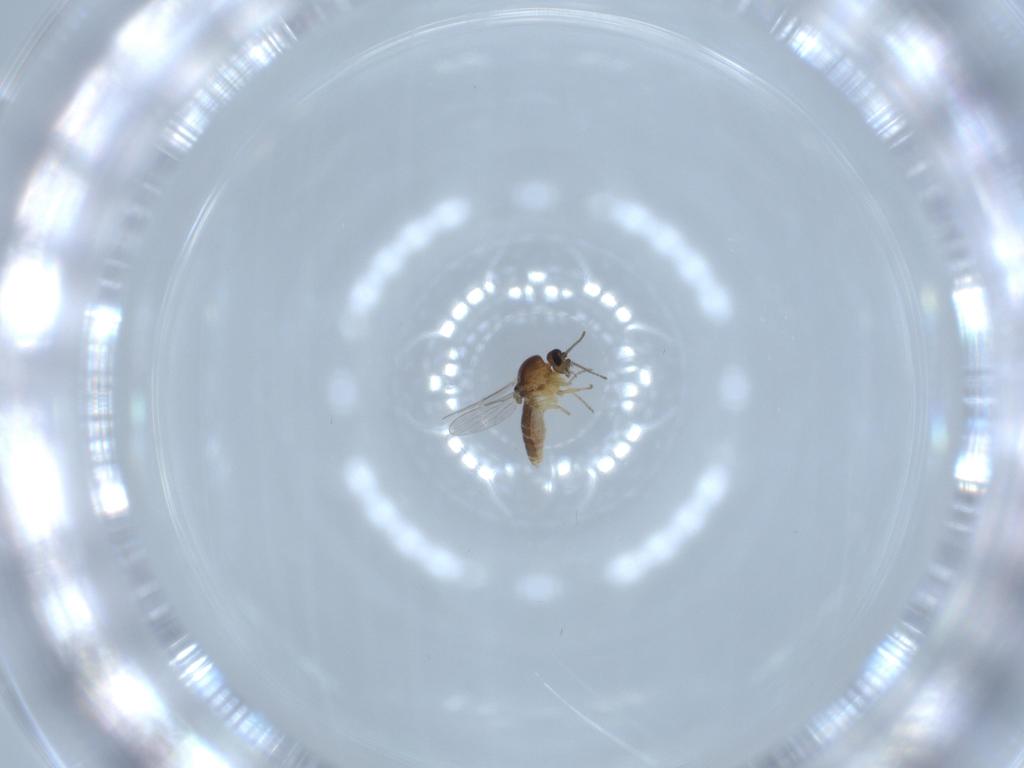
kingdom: Animalia
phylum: Arthropoda
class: Insecta
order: Diptera
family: Ceratopogonidae
